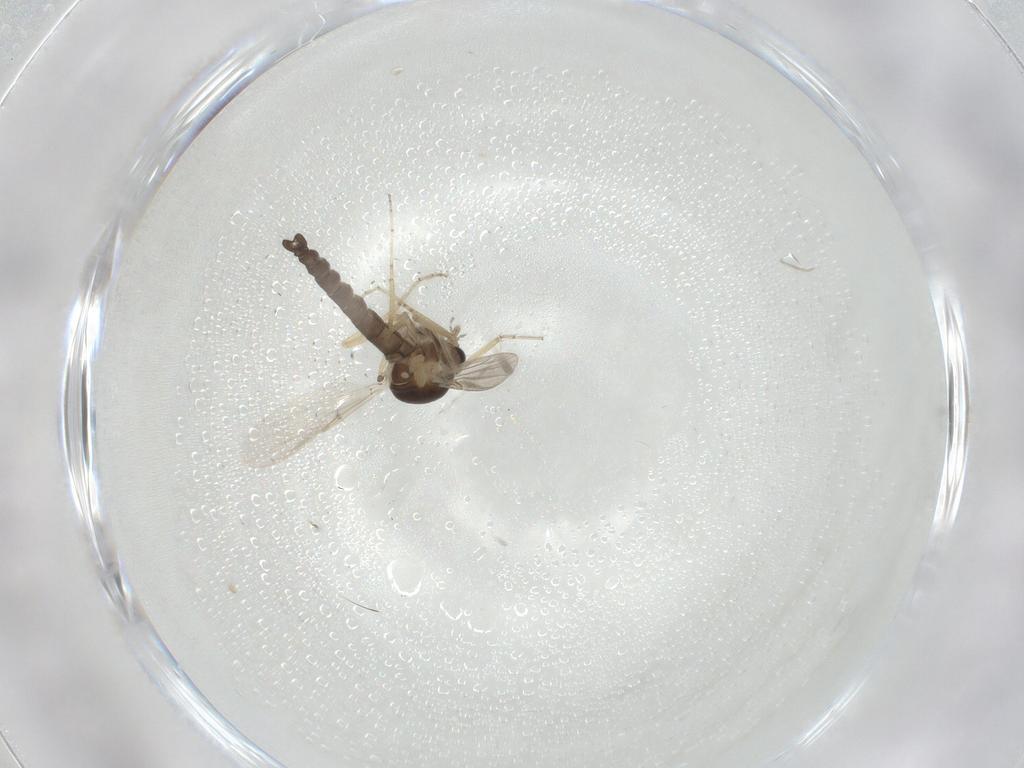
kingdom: Animalia
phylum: Arthropoda
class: Insecta
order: Diptera
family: Ceratopogonidae
